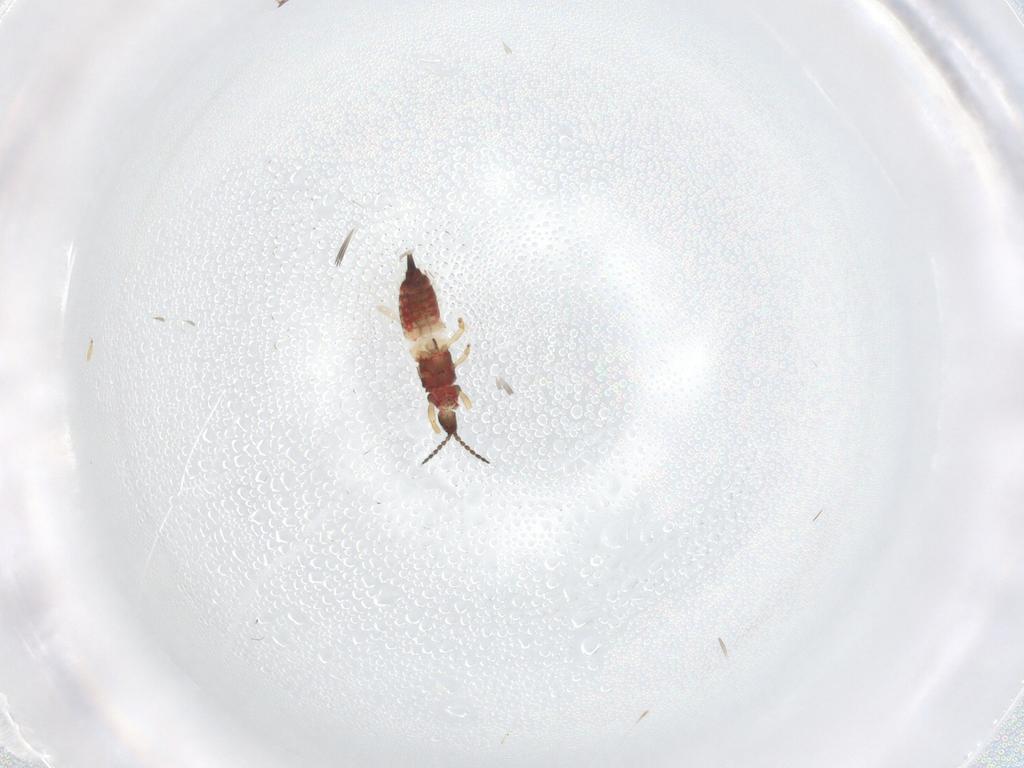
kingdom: Animalia
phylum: Arthropoda
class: Insecta
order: Thysanoptera
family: Phlaeothripidae
